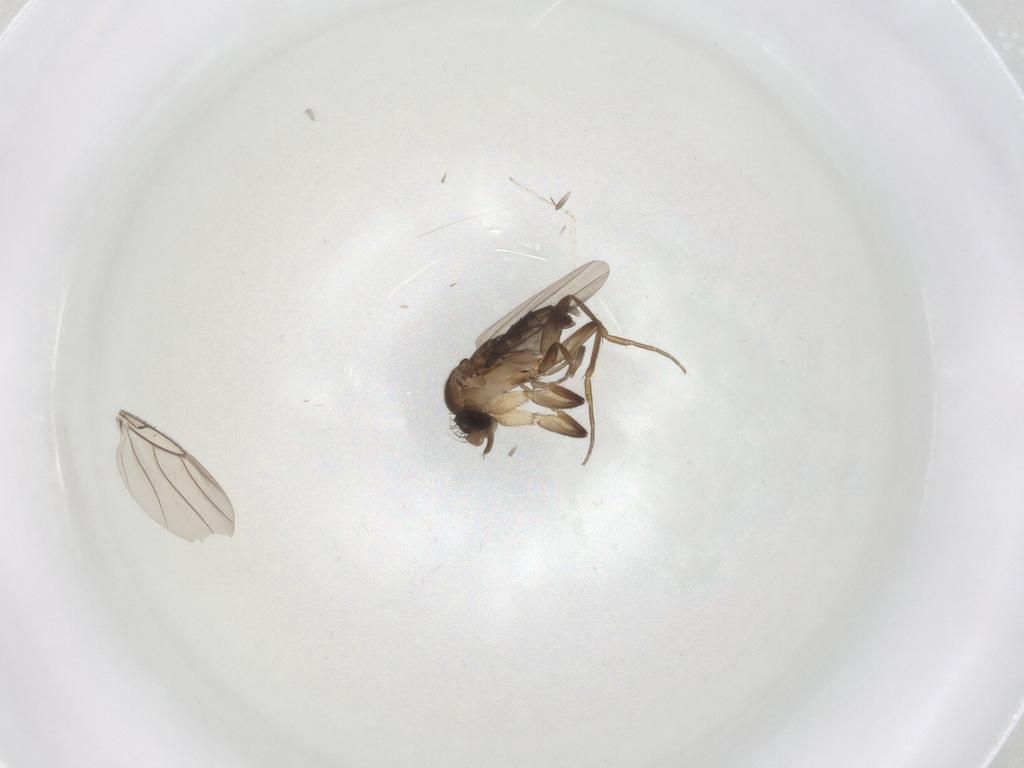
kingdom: Animalia
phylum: Arthropoda
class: Insecta
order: Diptera
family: Phoridae
